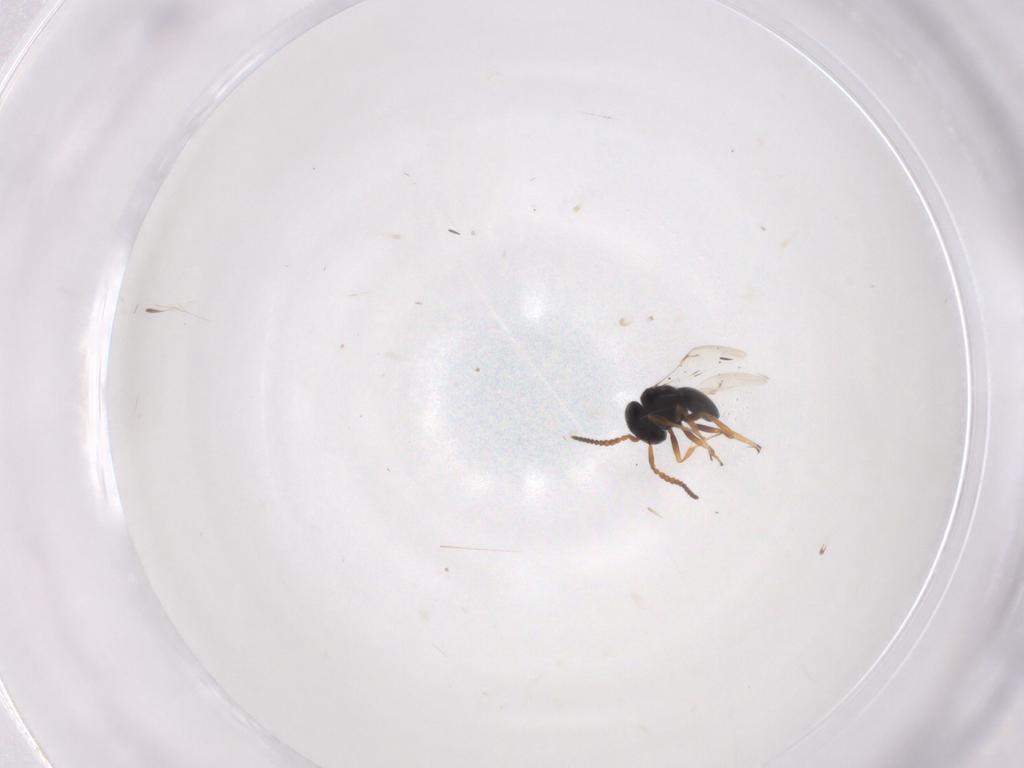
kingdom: Animalia
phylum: Arthropoda
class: Insecta
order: Hymenoptera
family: Scelionidae
